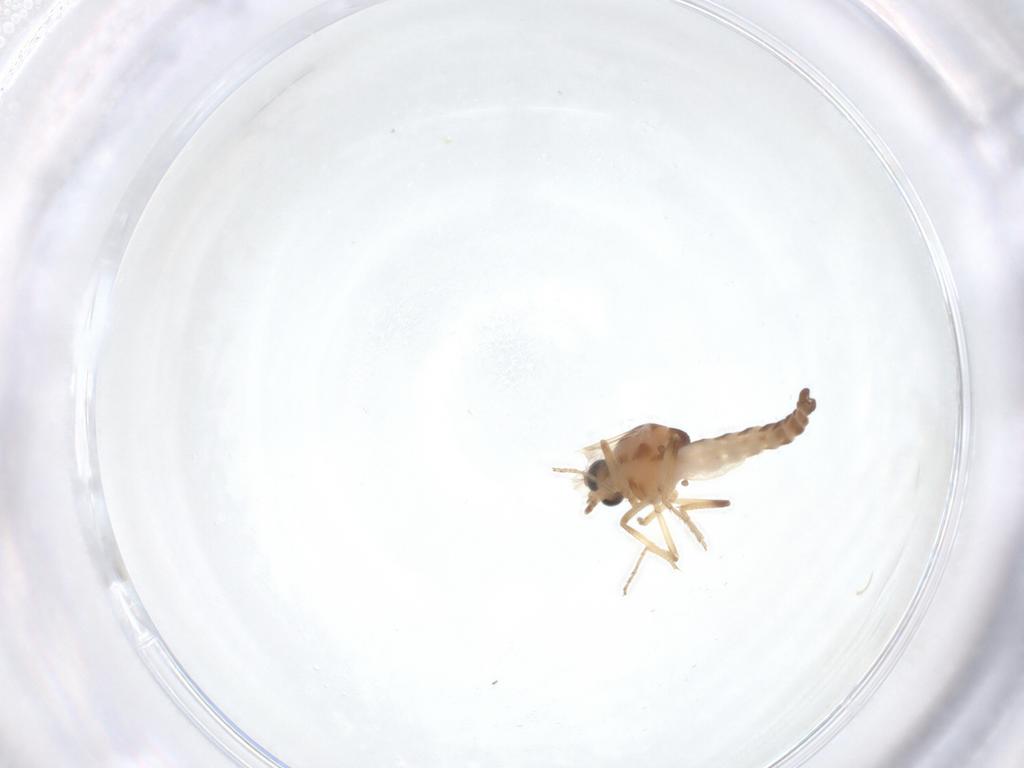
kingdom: Animalia
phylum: Arthropoda
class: Insecta
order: Diptera
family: Ceratopogonidae
